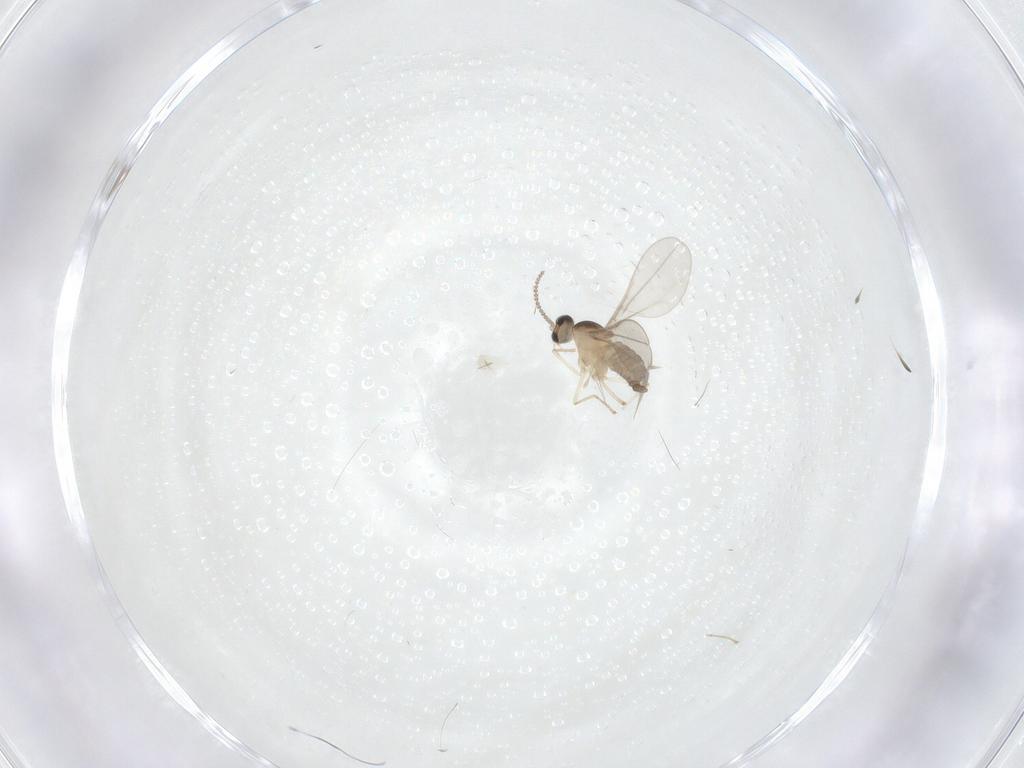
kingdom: Animalia
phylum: Arthropoda
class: Insecta
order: Diptera
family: Cecidomyiidae
